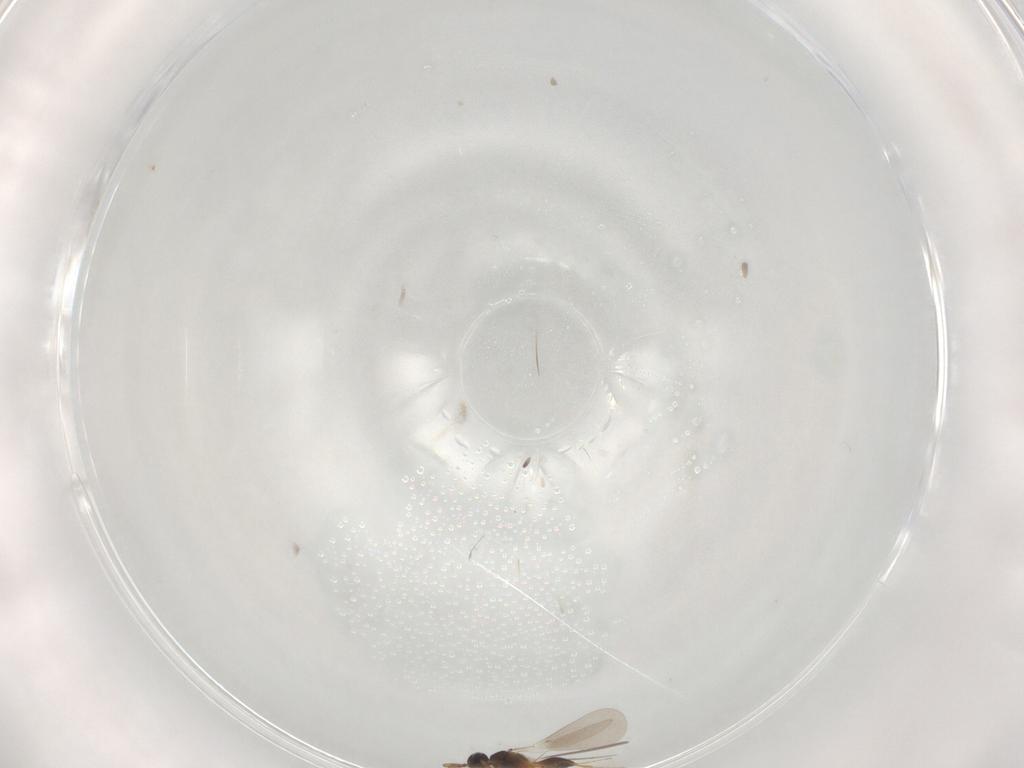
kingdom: Animalia
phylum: Arthropoda
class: Insecta
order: Hymenoptera
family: Platygastridae
